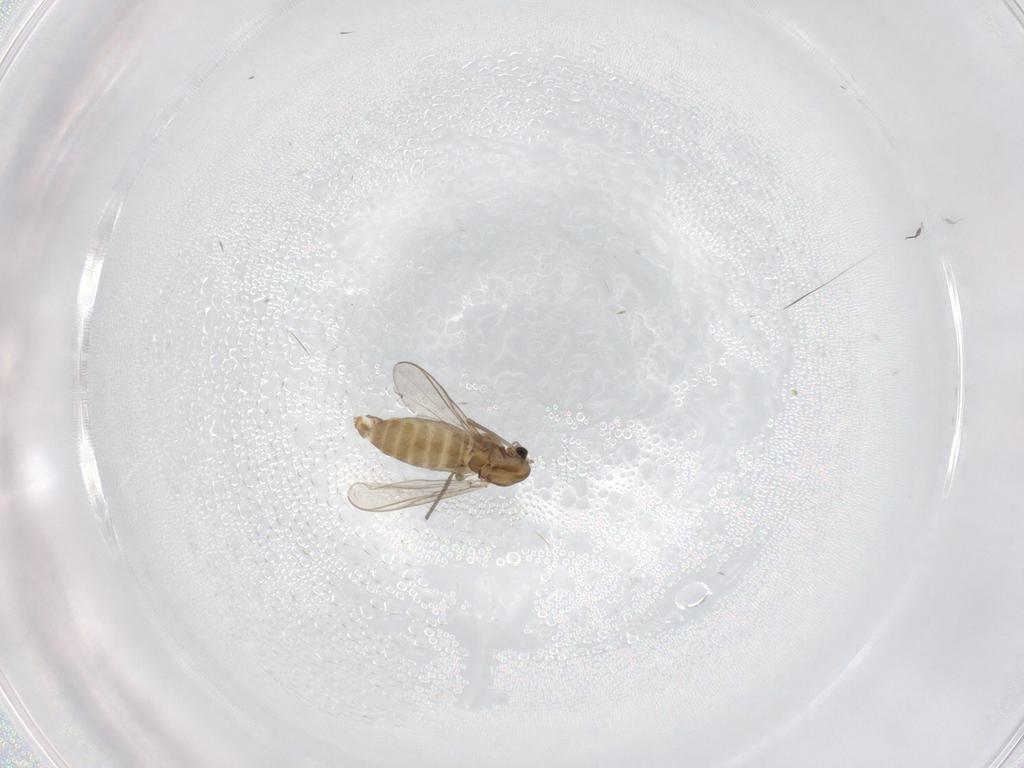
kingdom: Animalia
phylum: Arthropoda
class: Insecta
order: Diptera
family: Chironomidae
